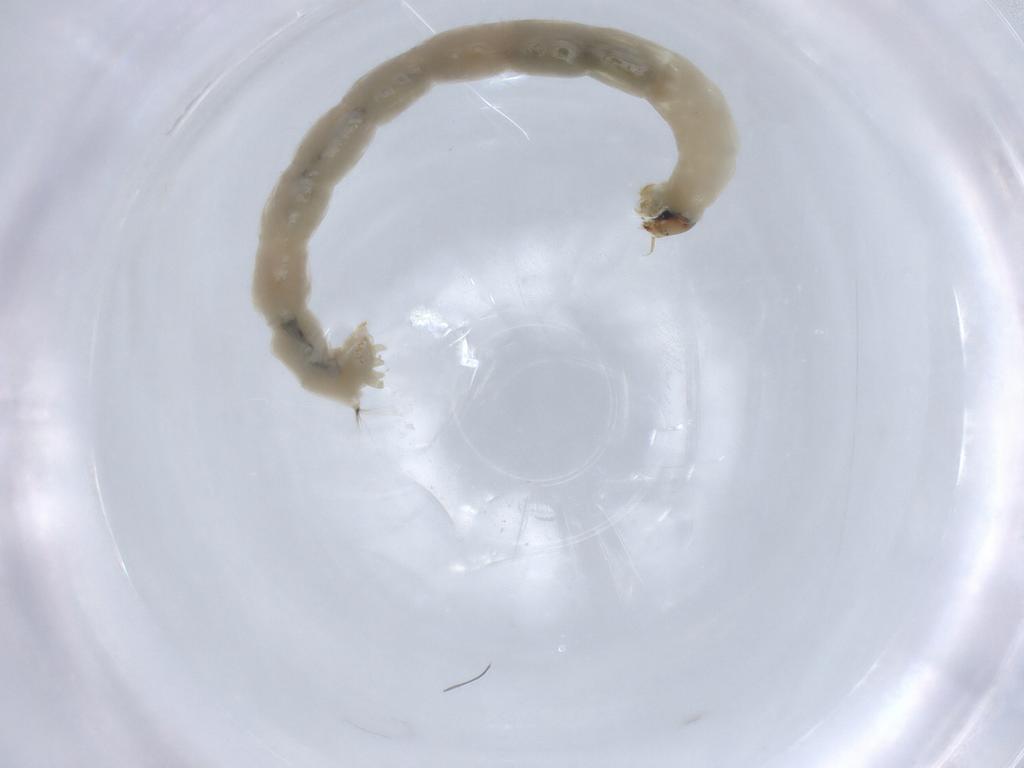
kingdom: Animalia
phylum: Arthropoda
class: Insecta
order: Diptera
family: Chironomidae
